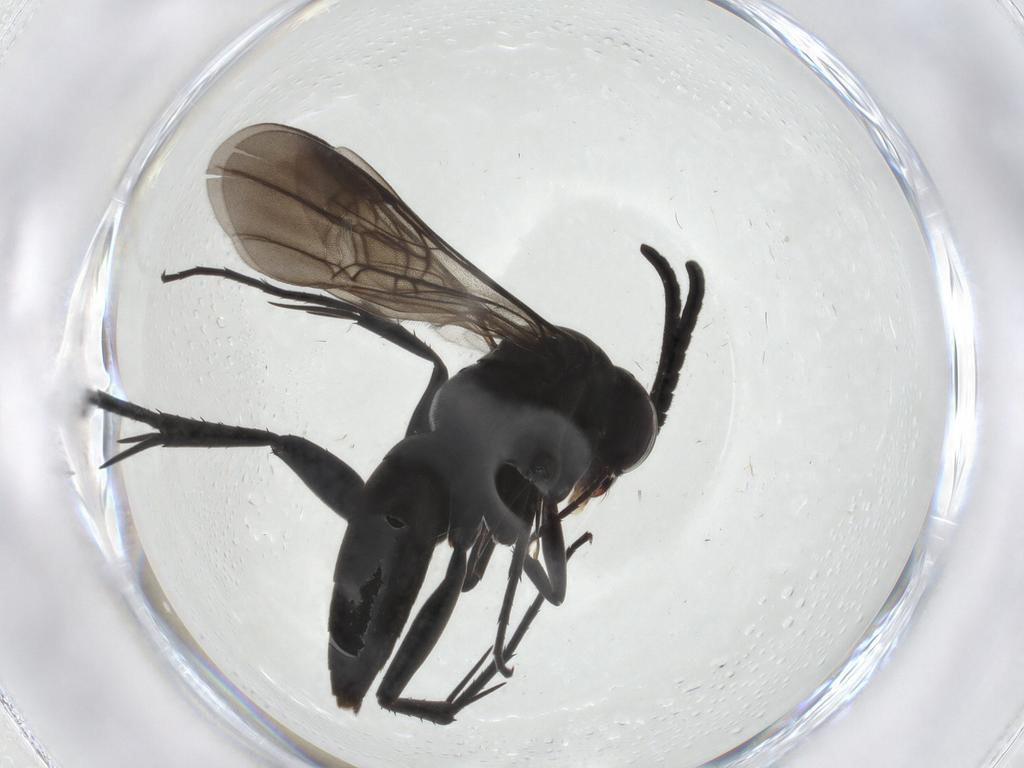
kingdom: Animalia
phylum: Arthropoda
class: Insecta
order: Hymenoptera
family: Pompilidae
